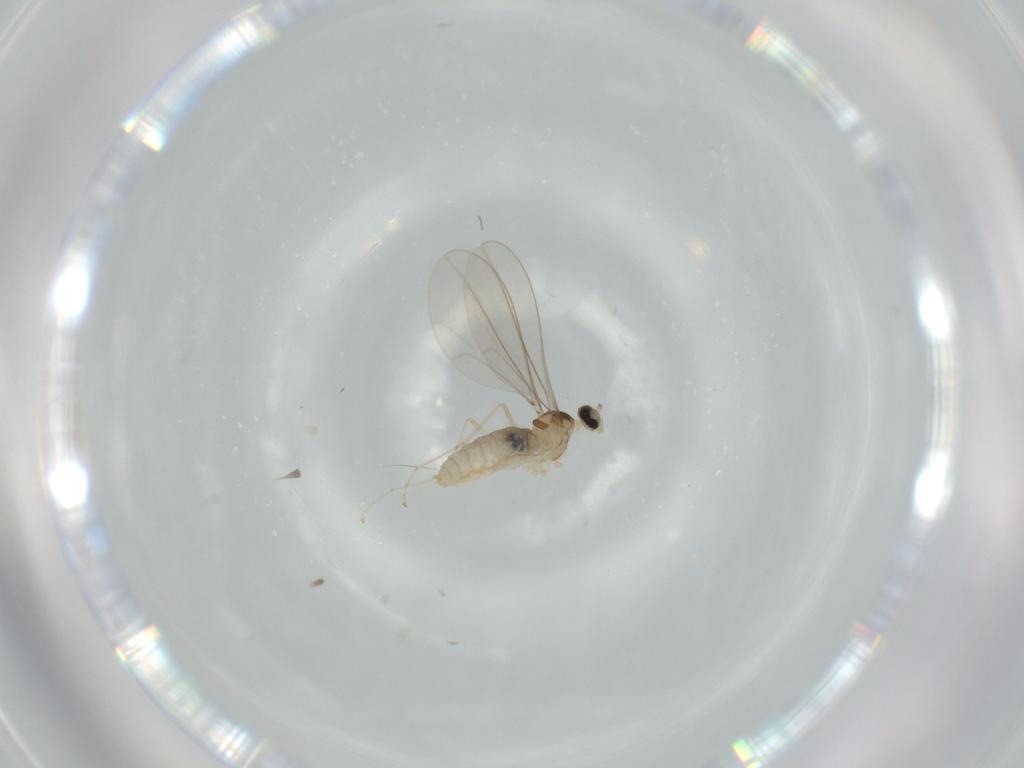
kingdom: Animalia
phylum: Arthropoda
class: Insecta
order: Diptera
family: Cecidomyiidae
